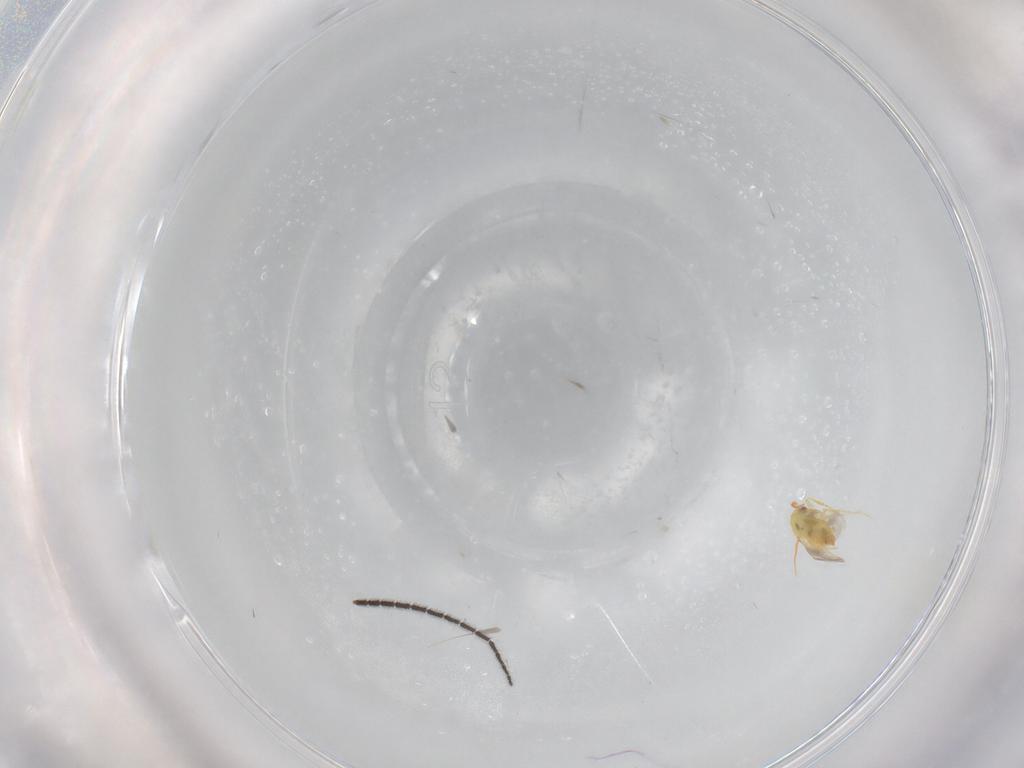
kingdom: Animalia
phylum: Arthropoda
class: Insecta
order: Hemiptera
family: Aleyrodidae
